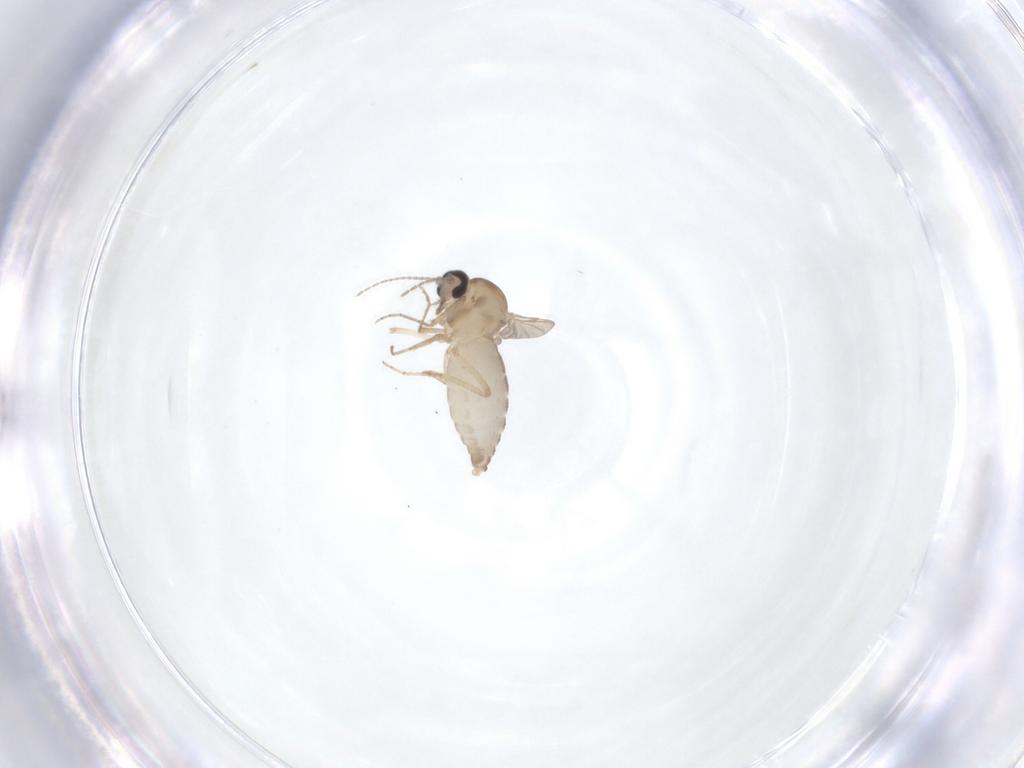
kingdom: Animalia
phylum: Arthropoda
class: Insecta
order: Diptera
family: Ceratopogonidae
